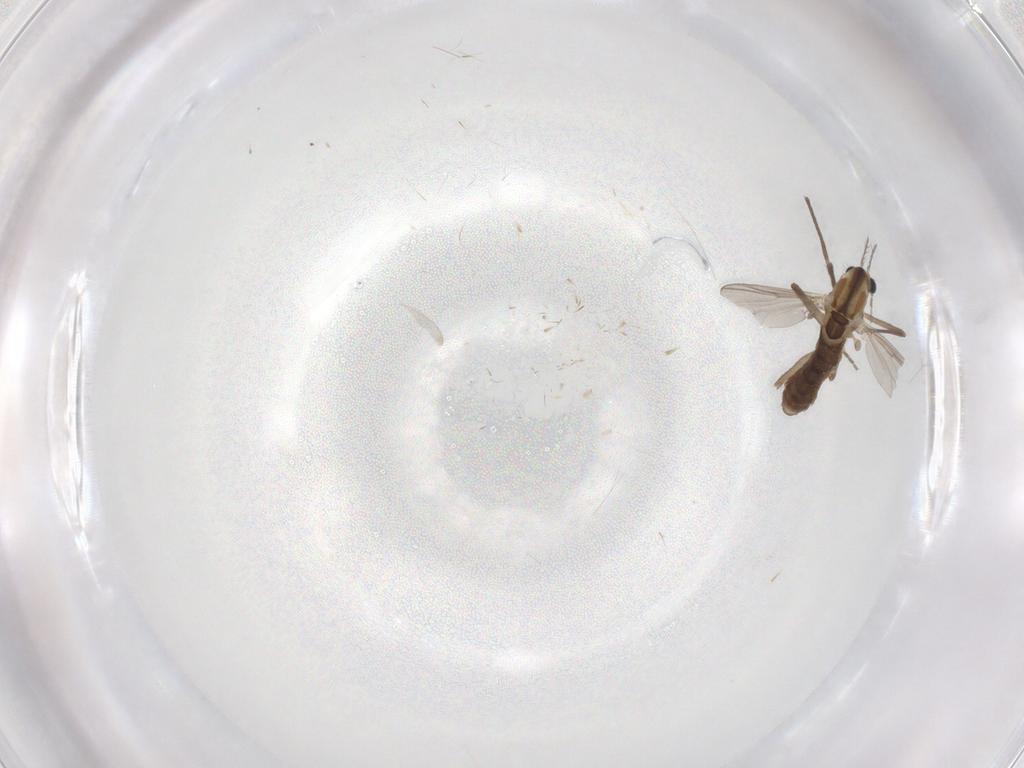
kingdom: Animalia
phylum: Arthropoda
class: Insecta
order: Diptera
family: Chironomidae
